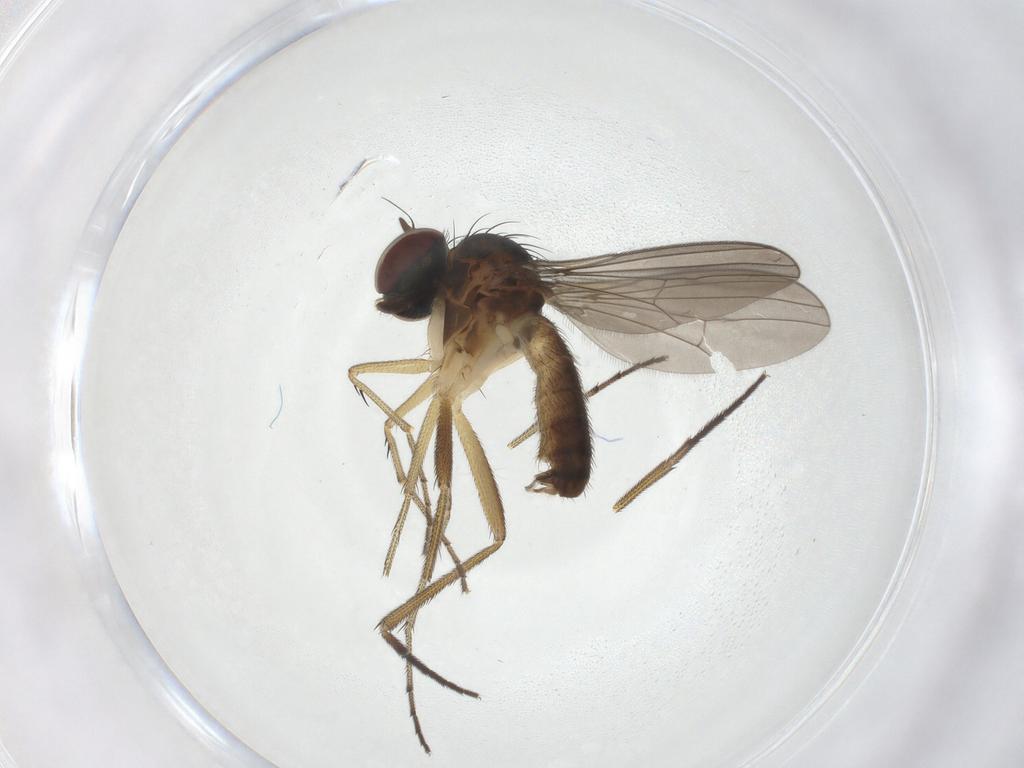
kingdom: Animalia
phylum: Arthropoda
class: Insecta
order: Diptera
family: Dolichopodidae
